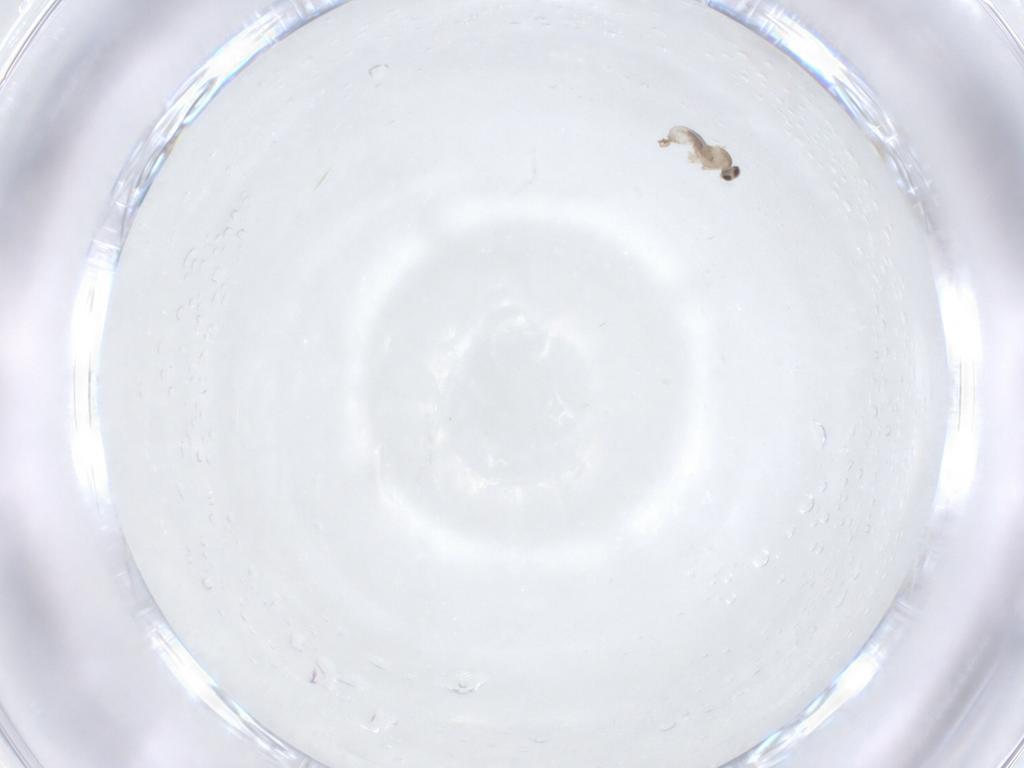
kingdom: Animalia
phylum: Arthropoda
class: Insecta
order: Diptera
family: Cecidomyiidae
